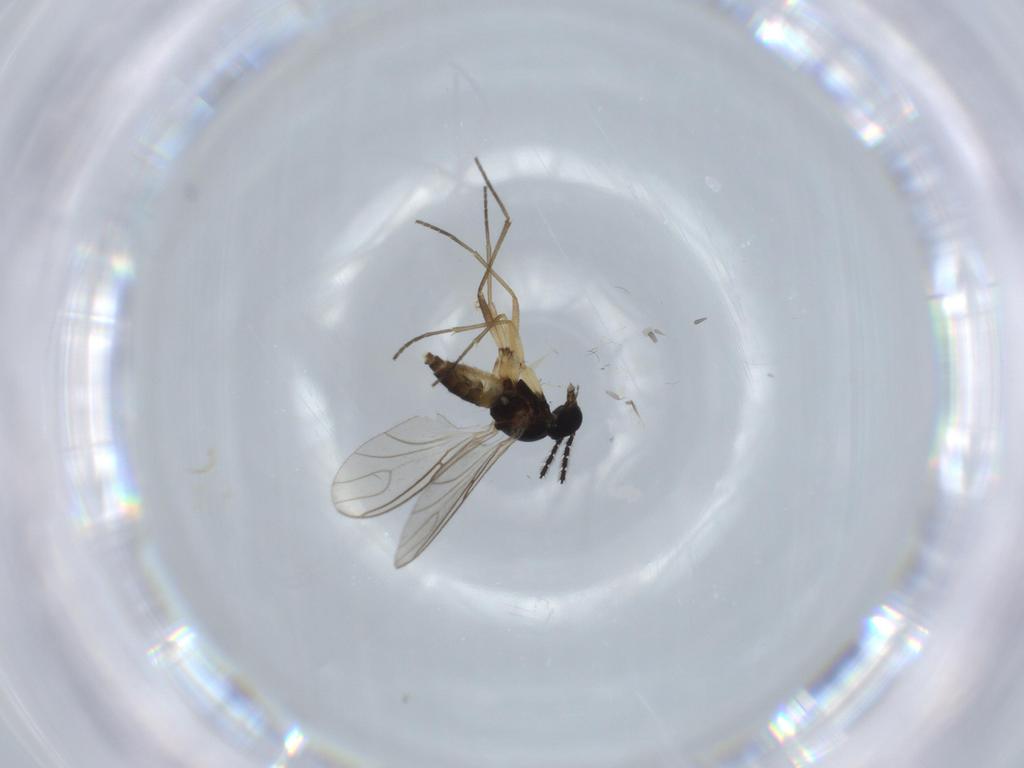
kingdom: Animalia
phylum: Arthropoda
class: Insecta
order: Diptera
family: Sciaridae
